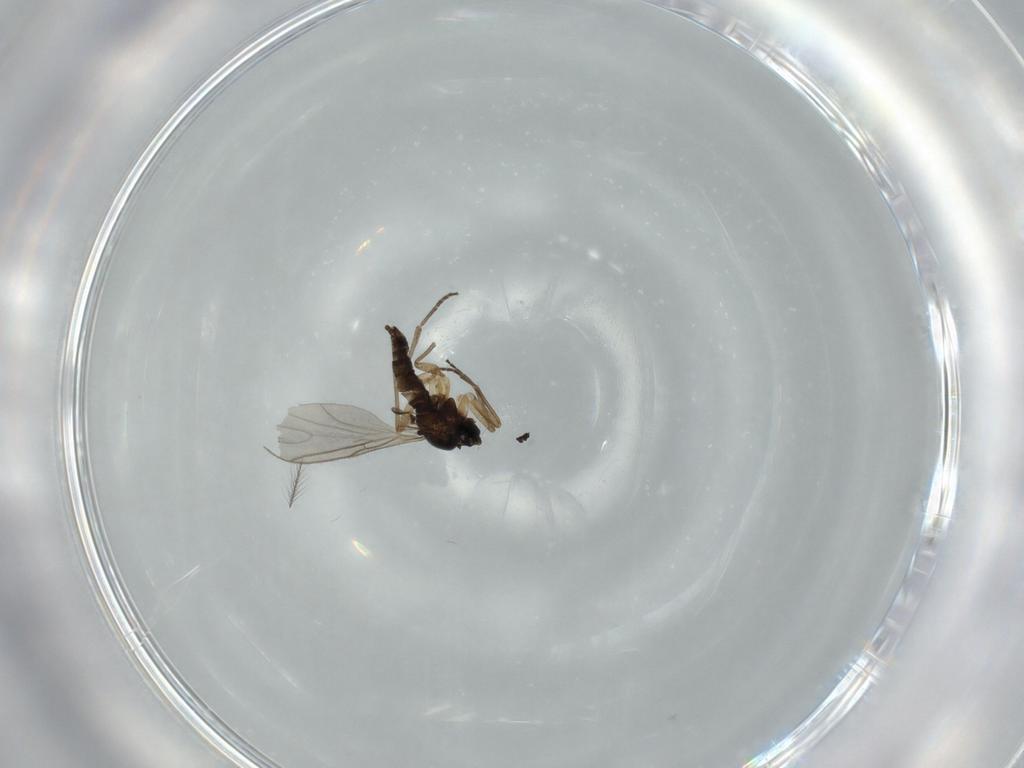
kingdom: Animalia
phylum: Arthropoda
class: Insecta
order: Diptera
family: Sciaridae
